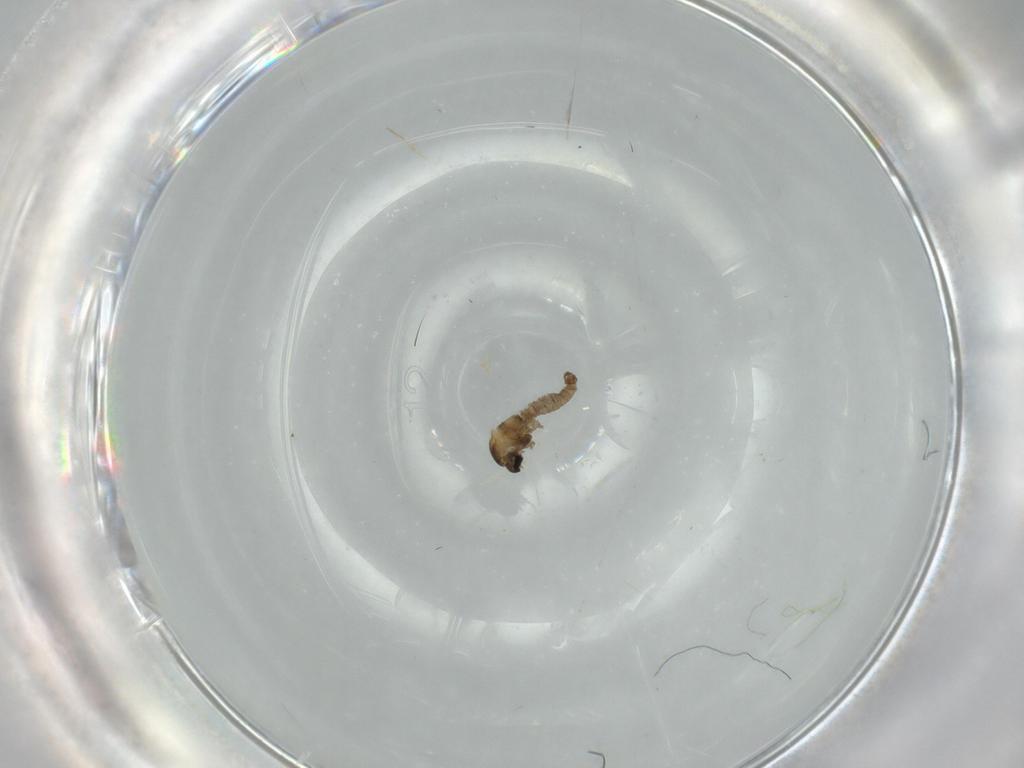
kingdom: Animalia
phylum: Arthropoda
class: Insecta
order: Diptera
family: Cecidomyiidae
